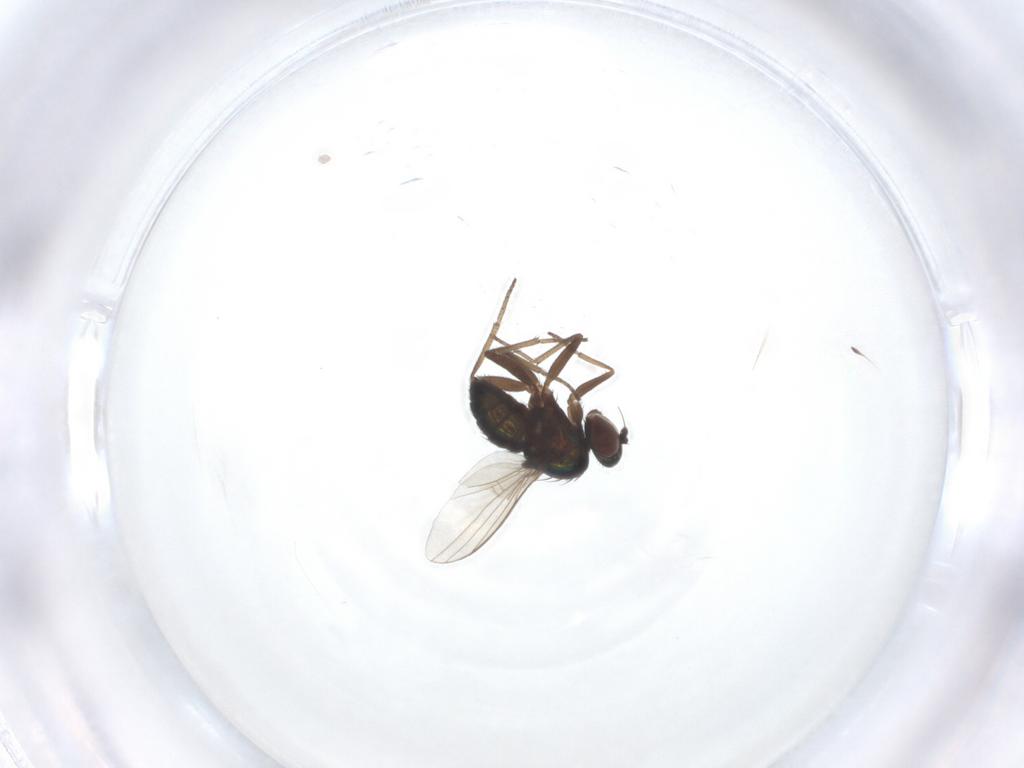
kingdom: Animalia
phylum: Arthropoda
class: Insecta
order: Diptera
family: Dolichopodidae
